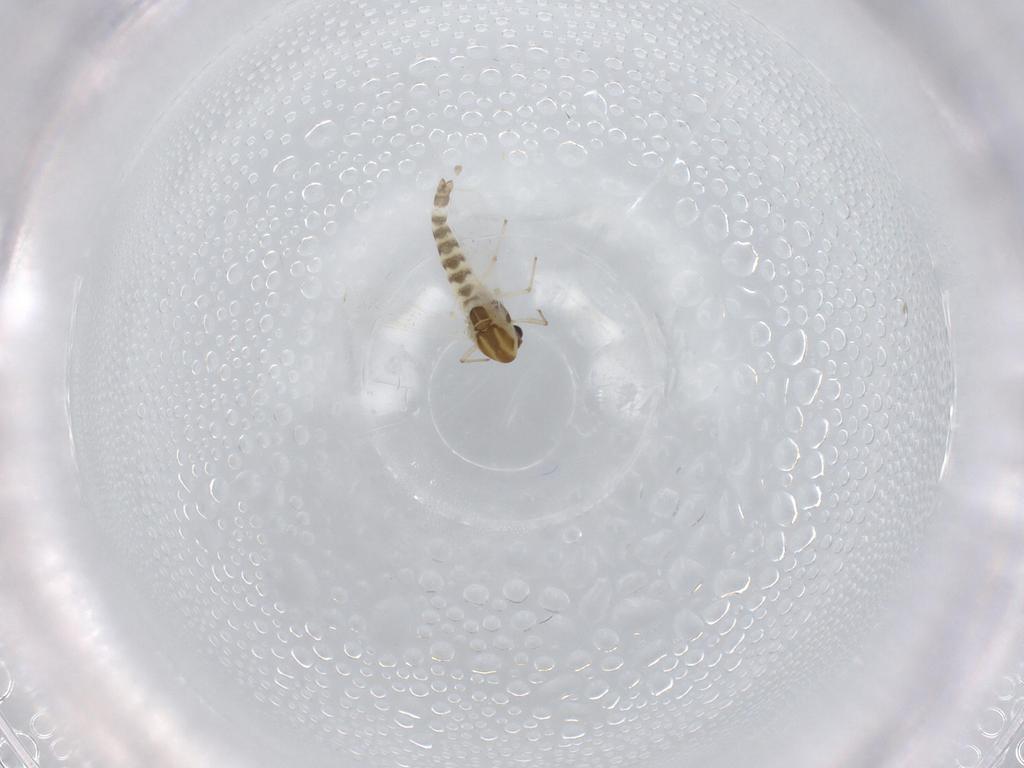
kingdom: Animalia
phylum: Arthropoda
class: Insecta
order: Diptera
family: Chironomidae
